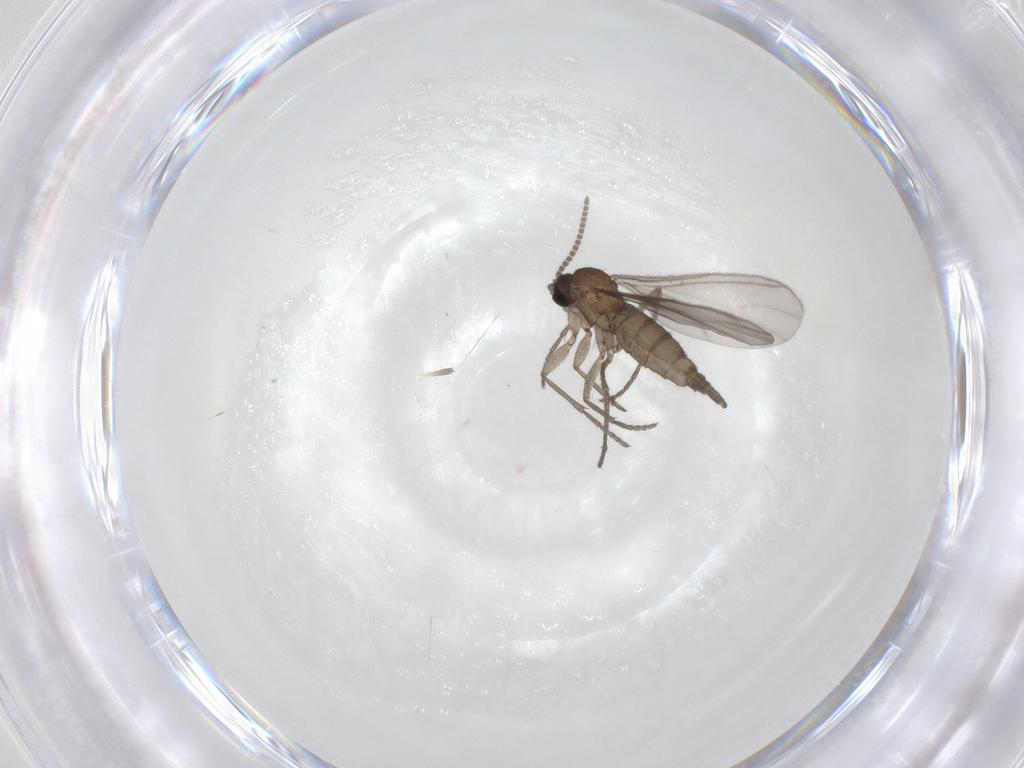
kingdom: Animalia
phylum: Arthropoda
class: Insecta
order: Diptera
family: Sciaridae
